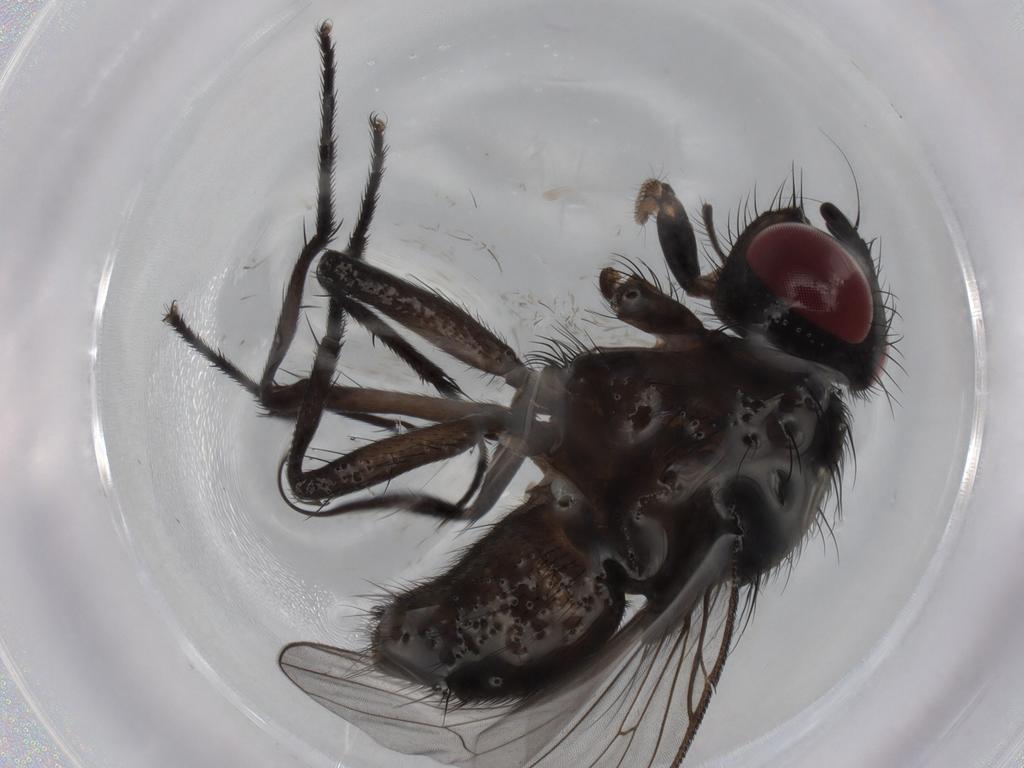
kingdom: Animalia
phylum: Arthropoda
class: Insecta
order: Diptera
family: Muscidae
